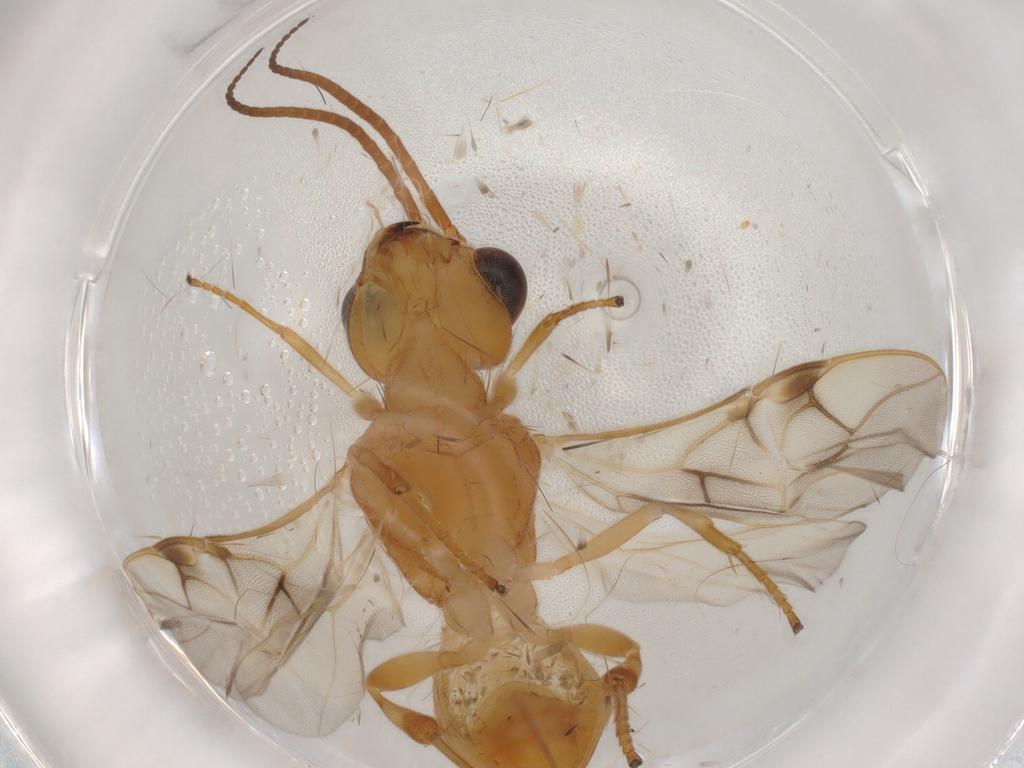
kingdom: Animalia
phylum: Arthropoda
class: Insecta
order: Hymenoptera
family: Braconidae
